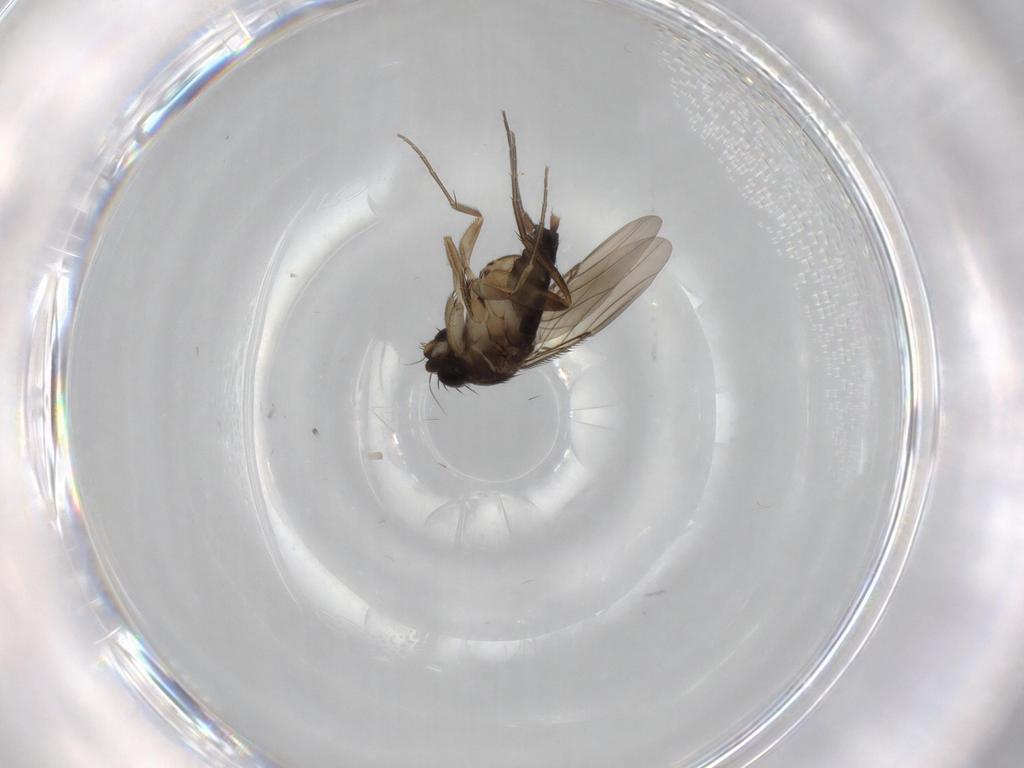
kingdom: Animalia
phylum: Arthropoda
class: Insecta
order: Diptera
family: Phoridae
